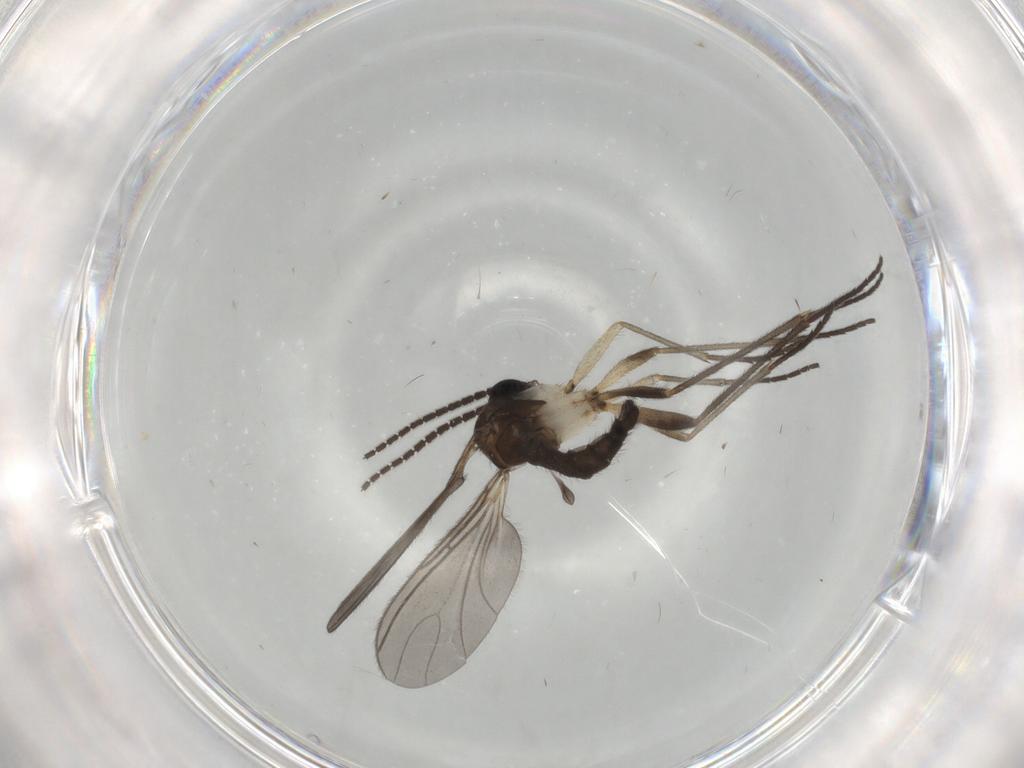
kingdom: Animalia
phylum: Arthropoda
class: Insecta
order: Diptera
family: Sciaridae
